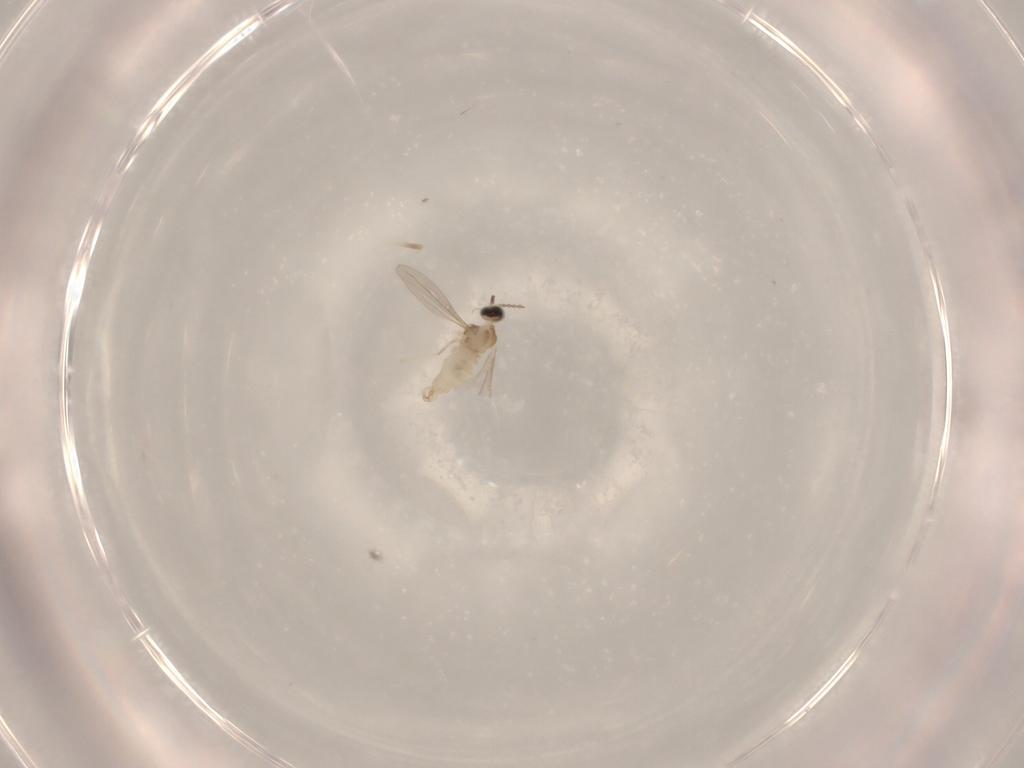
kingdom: Animalia
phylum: Arthropoda
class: Insecta
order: Diptera
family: Cecidomyiidae
